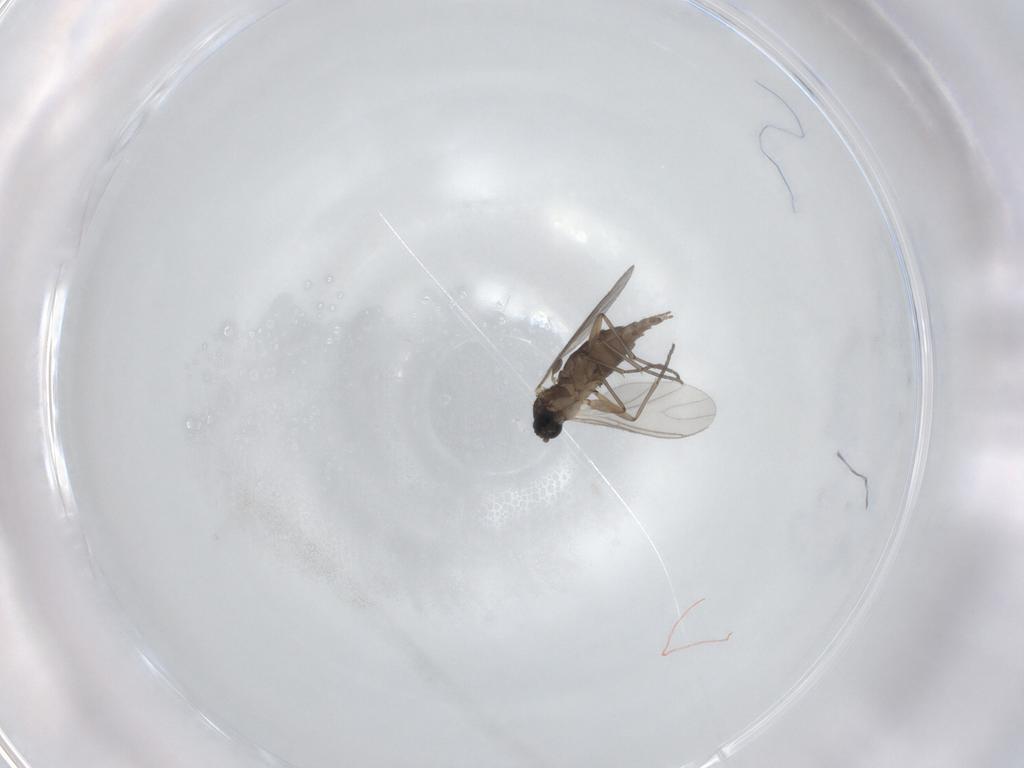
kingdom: Animalia
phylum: Arthropoda
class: Insecta
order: Diptera
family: Sciaridae
